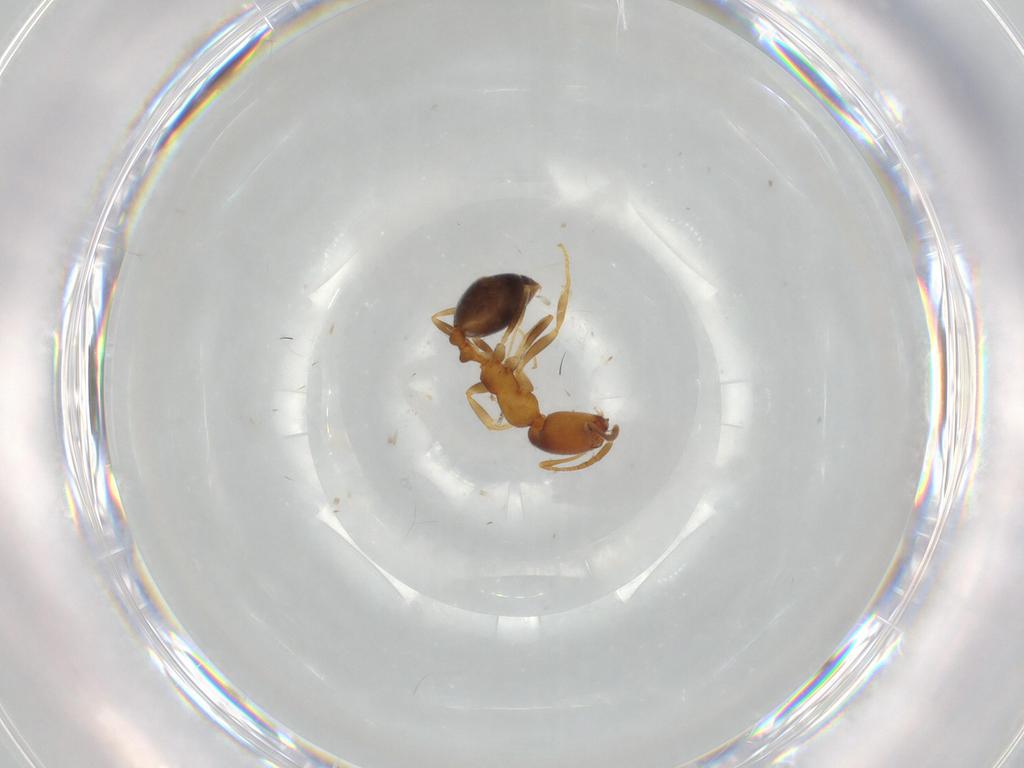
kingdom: Animalia
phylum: Arthropoda
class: Insecta
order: Hymenoptera
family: Formicidae
